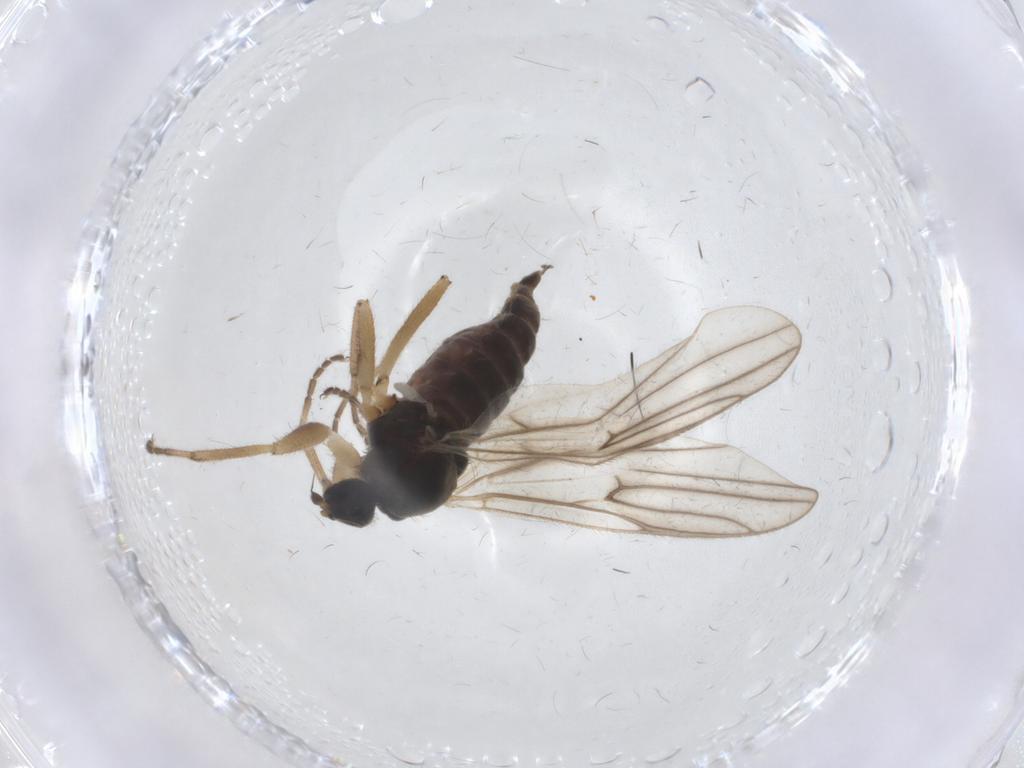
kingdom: Animalia
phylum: Arthropoda
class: Insecta
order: Diptera
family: Hybotidae
